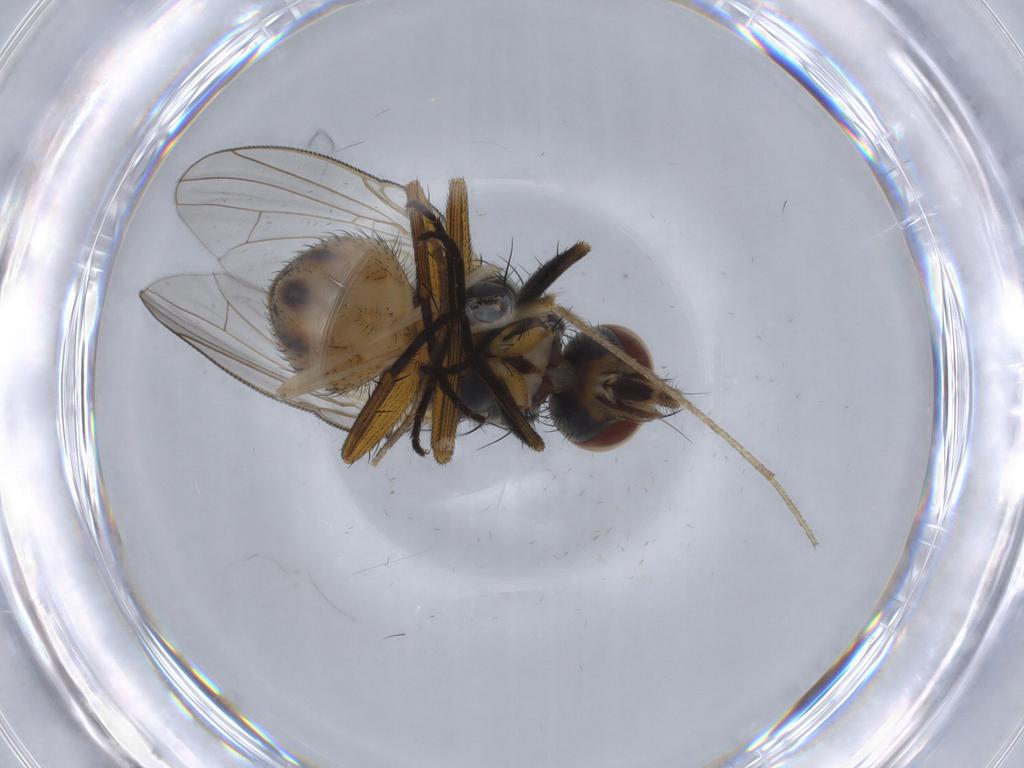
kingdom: Animalia
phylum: Arthropoda
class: Insecta
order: Diptera
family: Muscidae
